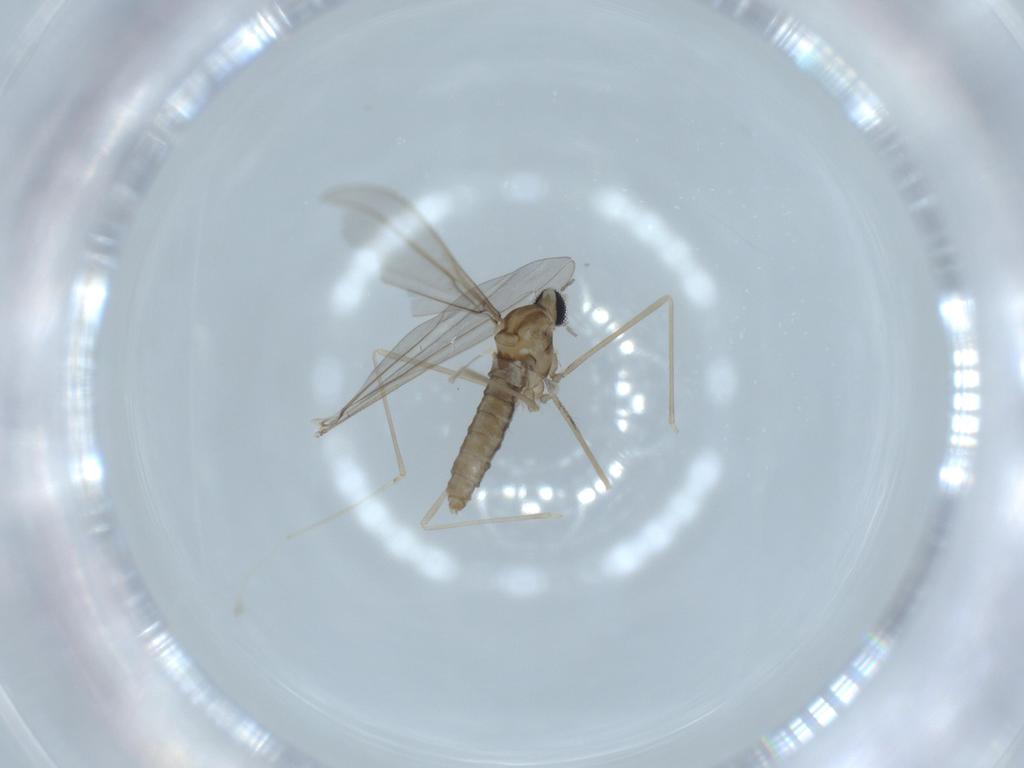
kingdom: Animalia
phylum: Arthropoda
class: Insecta
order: Diptera
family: Cecidomyiidae
